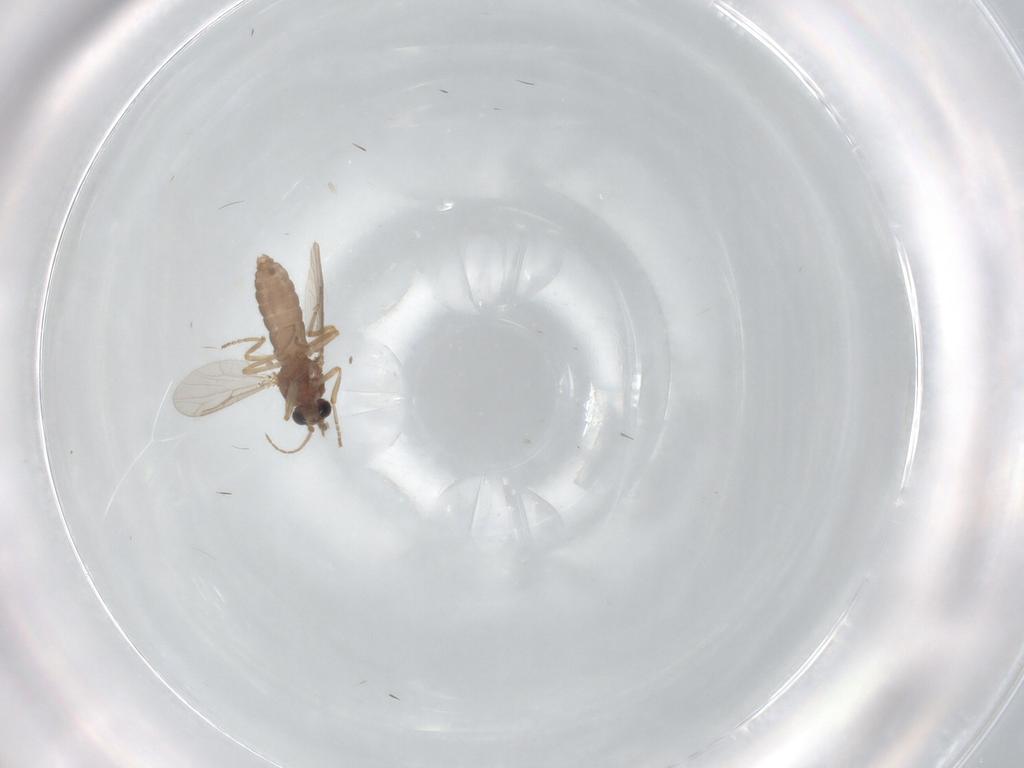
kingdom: Animalia
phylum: Arthropoda
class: Insecta
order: Diptera
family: Ceratopogonidae
